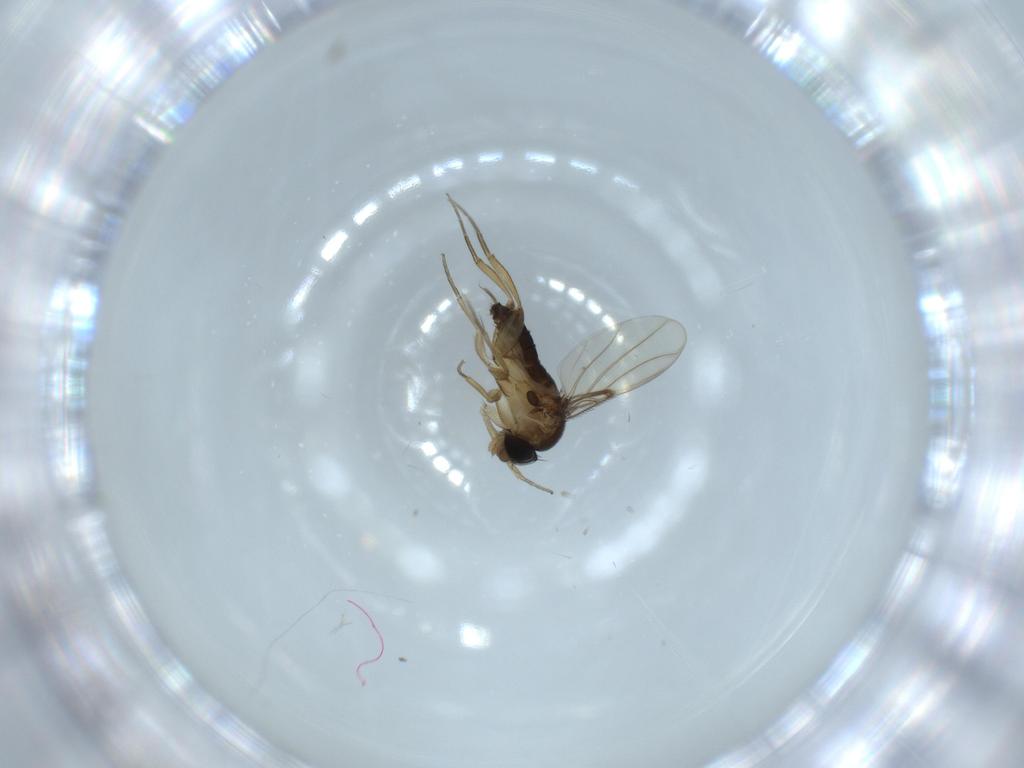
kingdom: Animalia
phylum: Arthropoda
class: Insecta
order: Diptera
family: Phoridae
